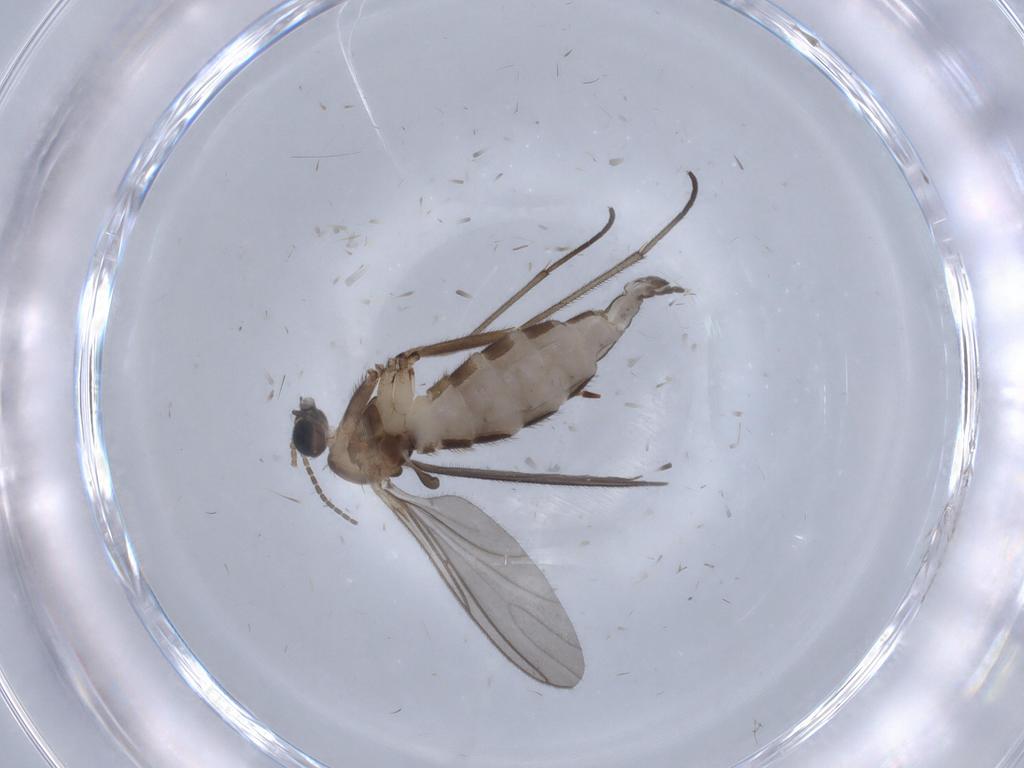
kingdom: Animalia
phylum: Arthropoda
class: Insecta
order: Diptera
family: Sciaridae
